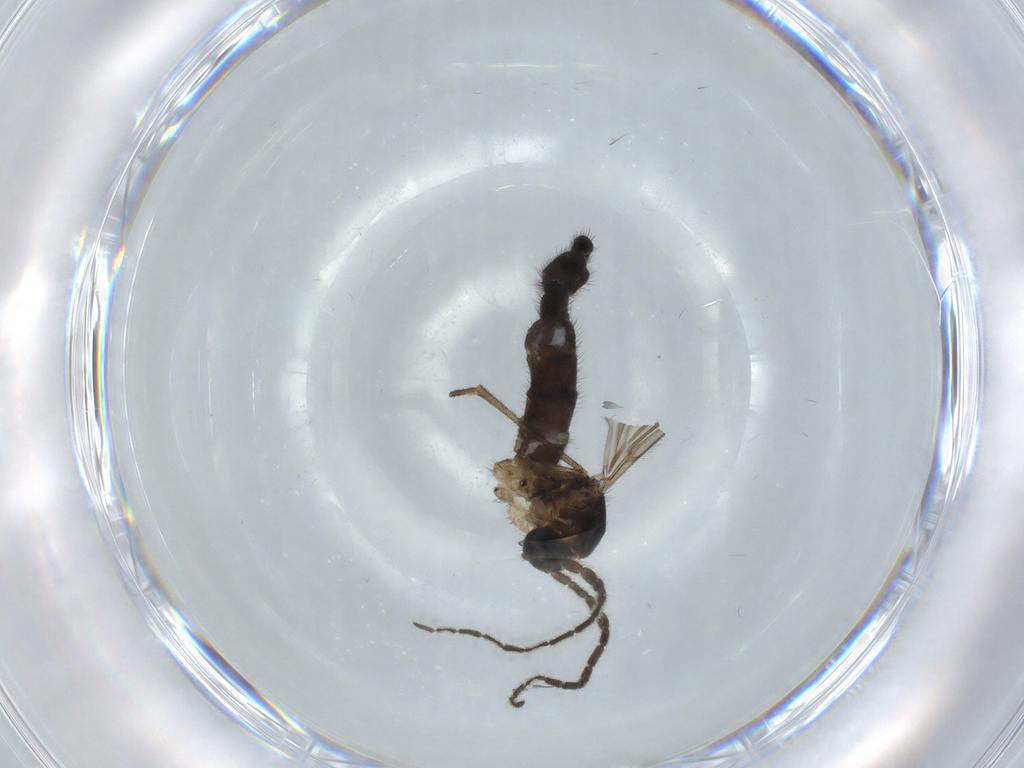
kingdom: Animalia
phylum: Arthropoda
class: Insecta
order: Diptera
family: Sciaridae
